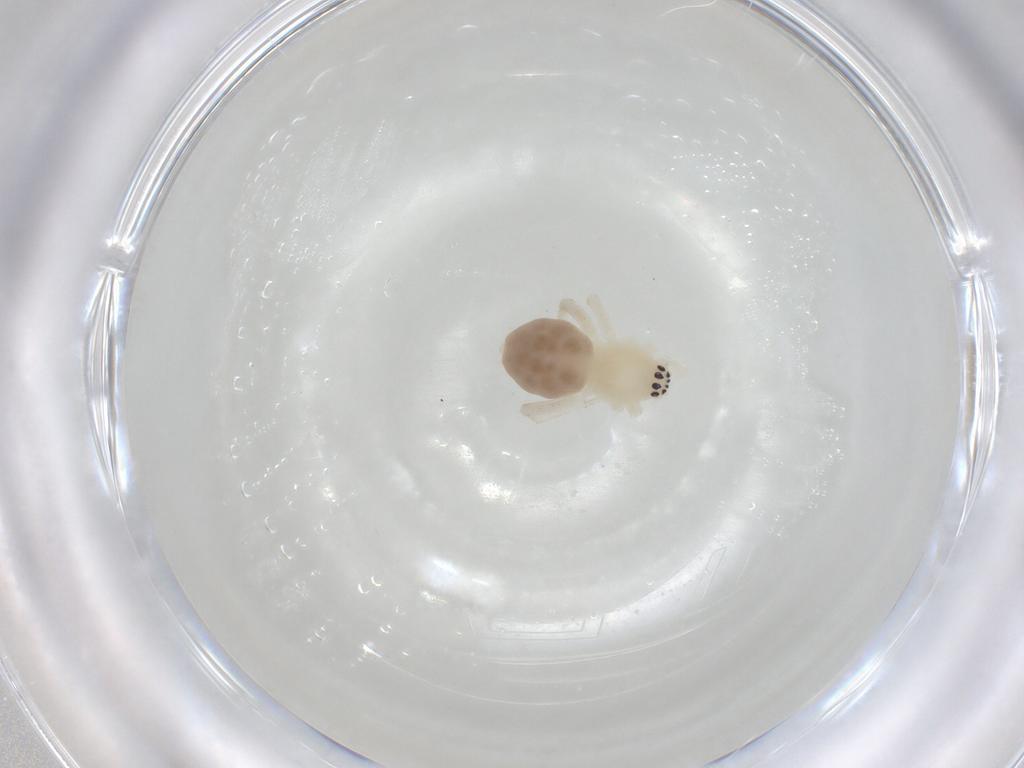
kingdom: Animalia
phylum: Arthropoda
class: Arachnida
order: Araneae
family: Anyphaenidae
